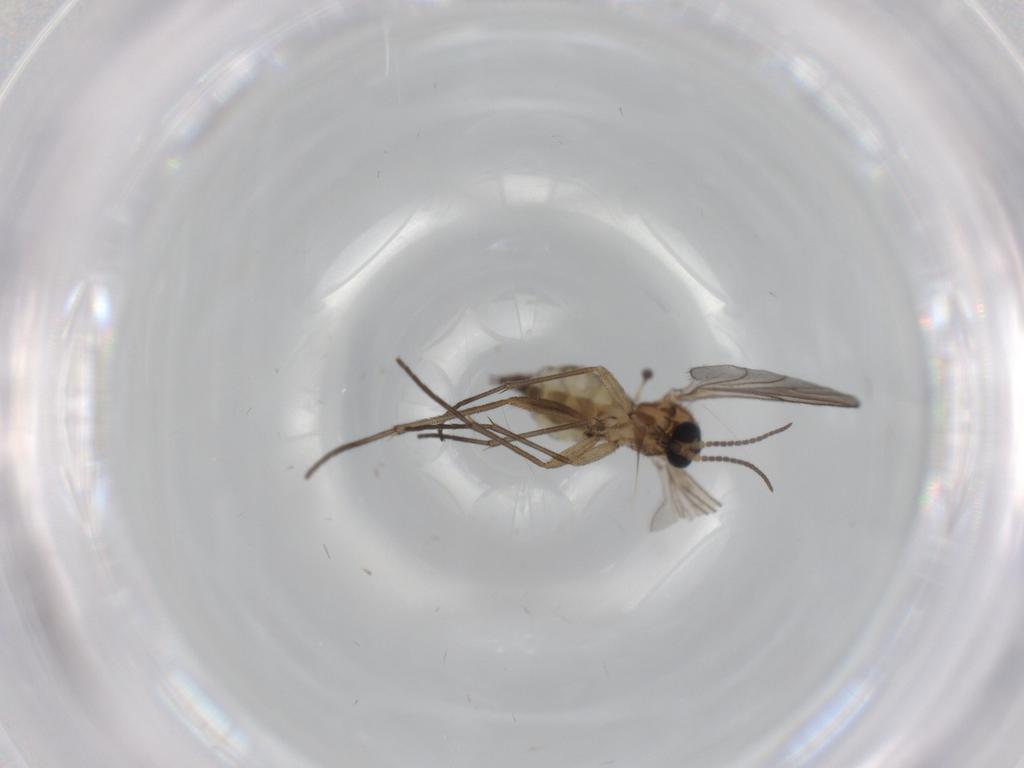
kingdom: Animalia
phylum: Arthropoda
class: Insecta
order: Diptera
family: Sciaridae
